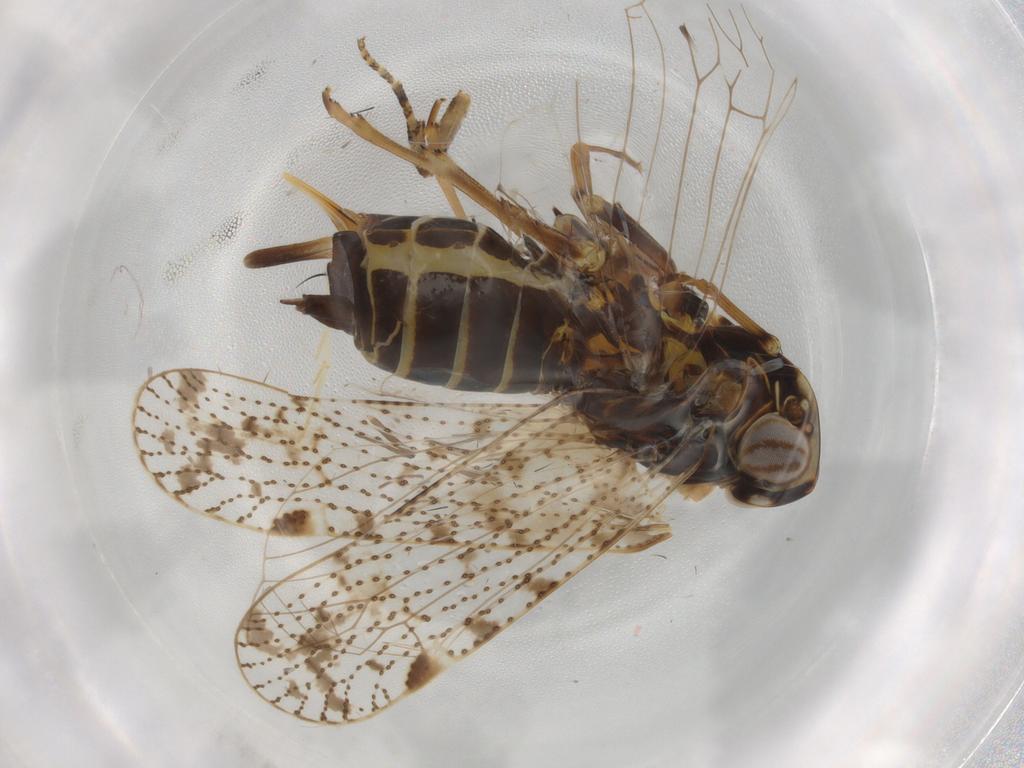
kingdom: Animalia
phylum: Arthropoda
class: Insecta
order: Hemiptera
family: Cixiidae
